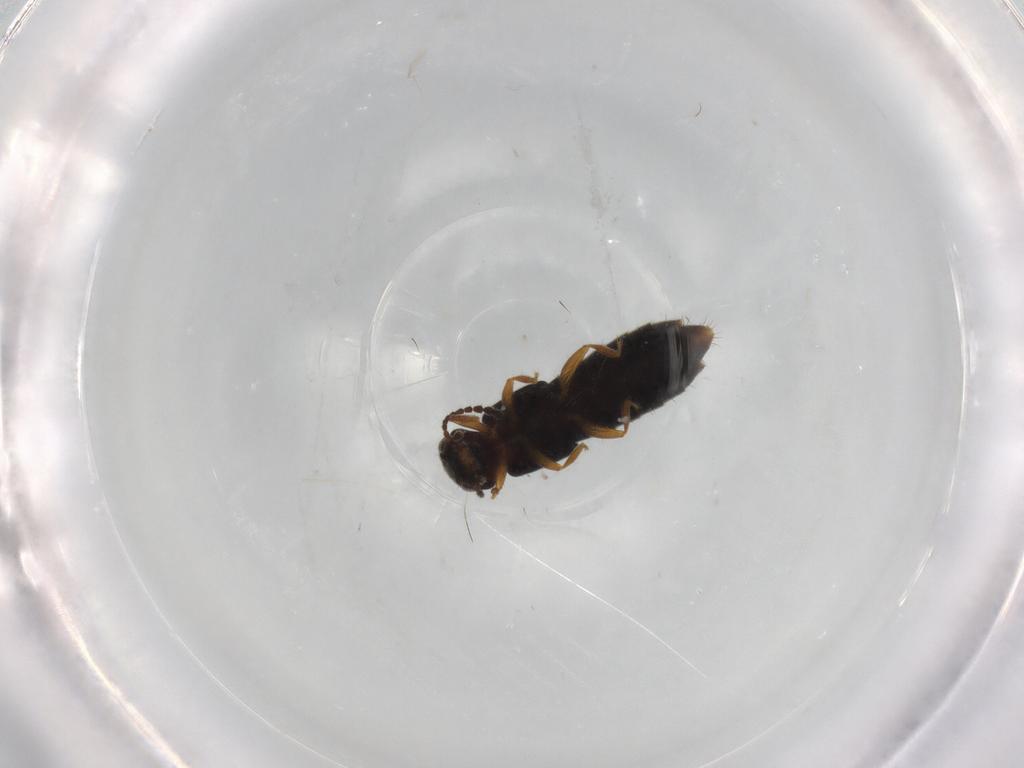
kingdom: Animalia
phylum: Arthropoda
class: Insecta
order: Coleoptera
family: Staphylinidae
